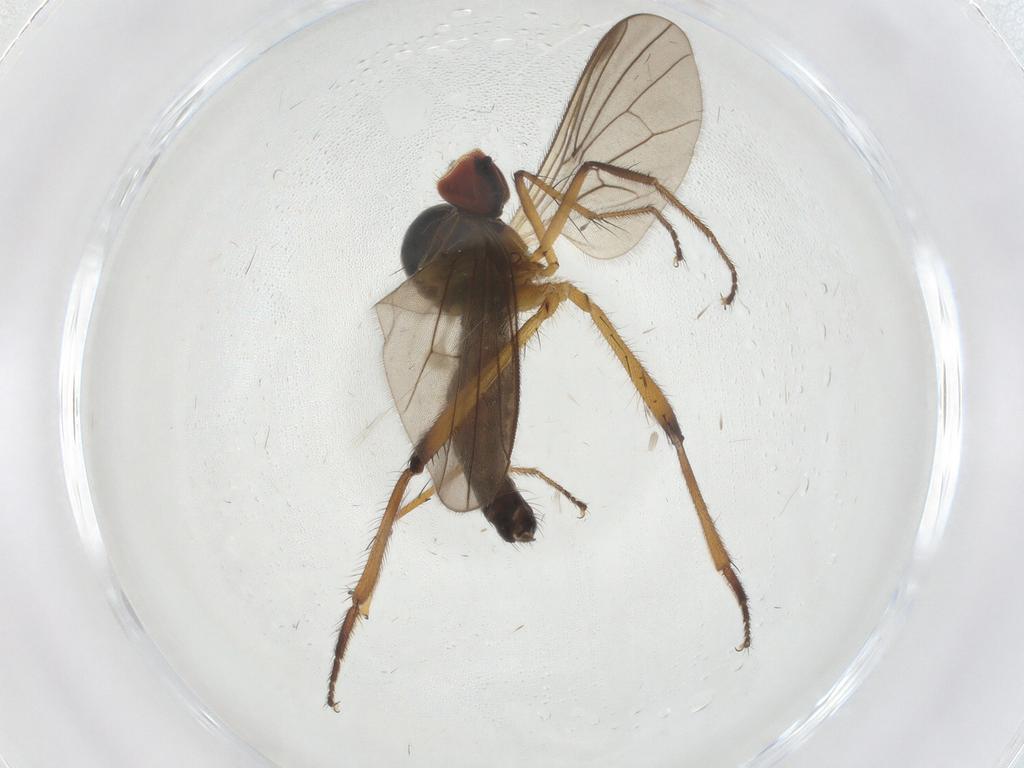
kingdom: Animalia
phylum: Arthropoda
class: Insecta
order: Diptera
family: Hybotidae
